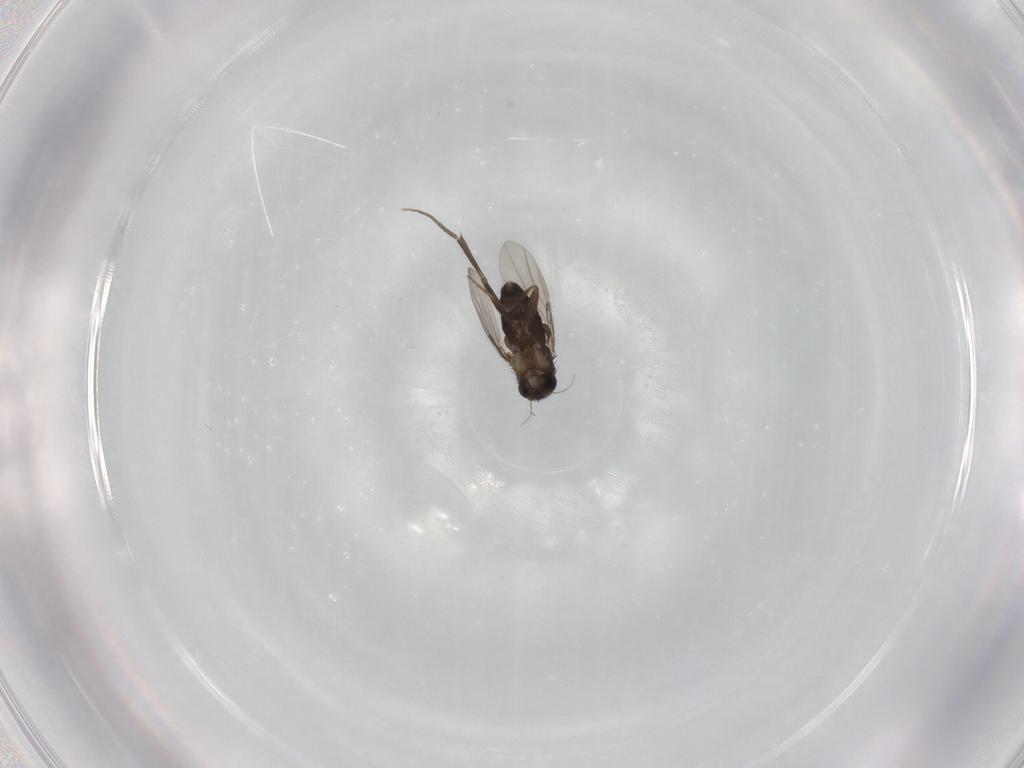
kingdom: Animalia
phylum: Arthropoda
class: Insecta
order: Diptera
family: Phoridae
